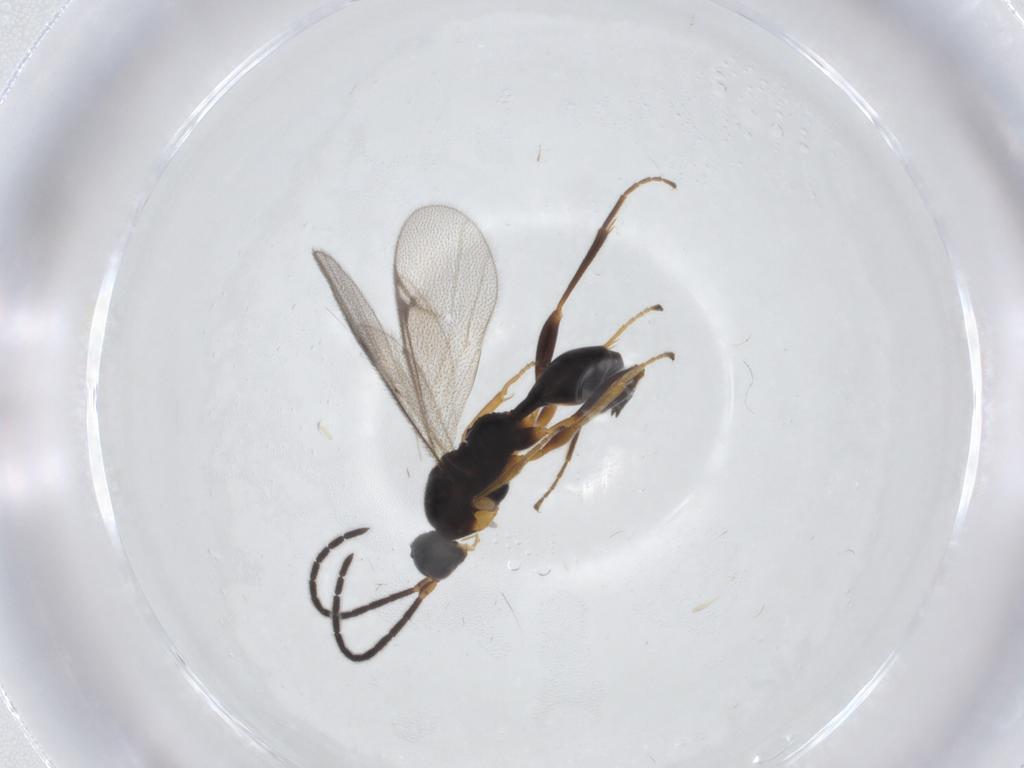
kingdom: Animalia
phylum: Arthropoda
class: Insecta
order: Hymenoptera
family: Proctotrupidae
